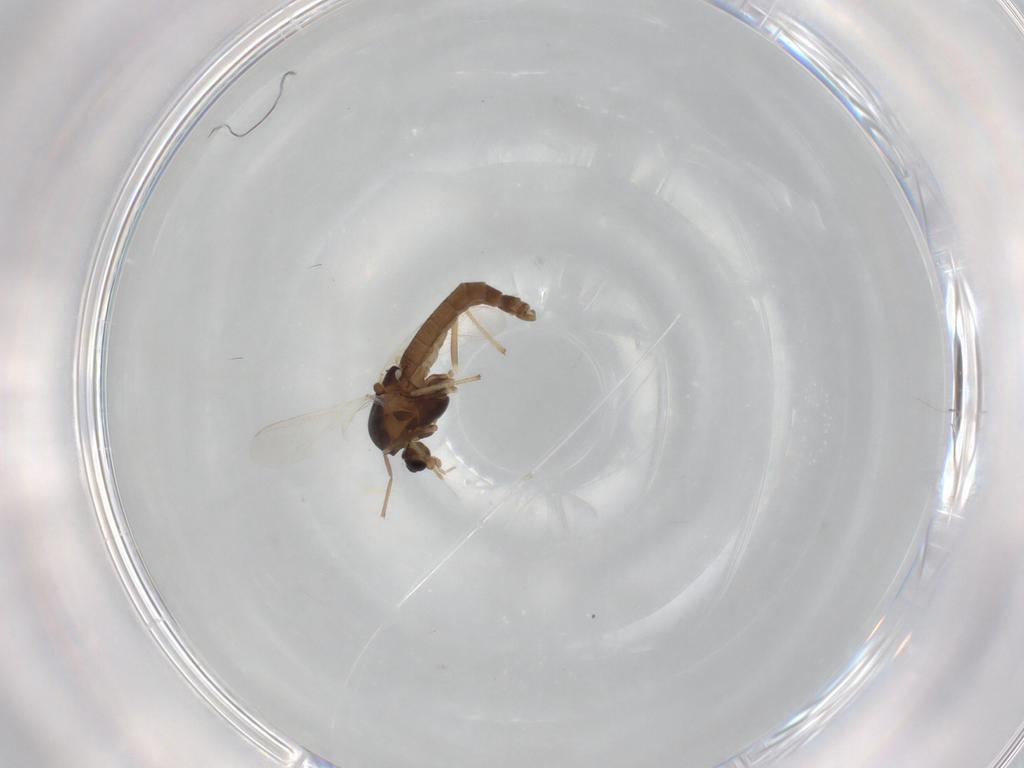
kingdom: Animalia
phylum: Arthropoda
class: Insecta
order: Diptera
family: Chironomidae
